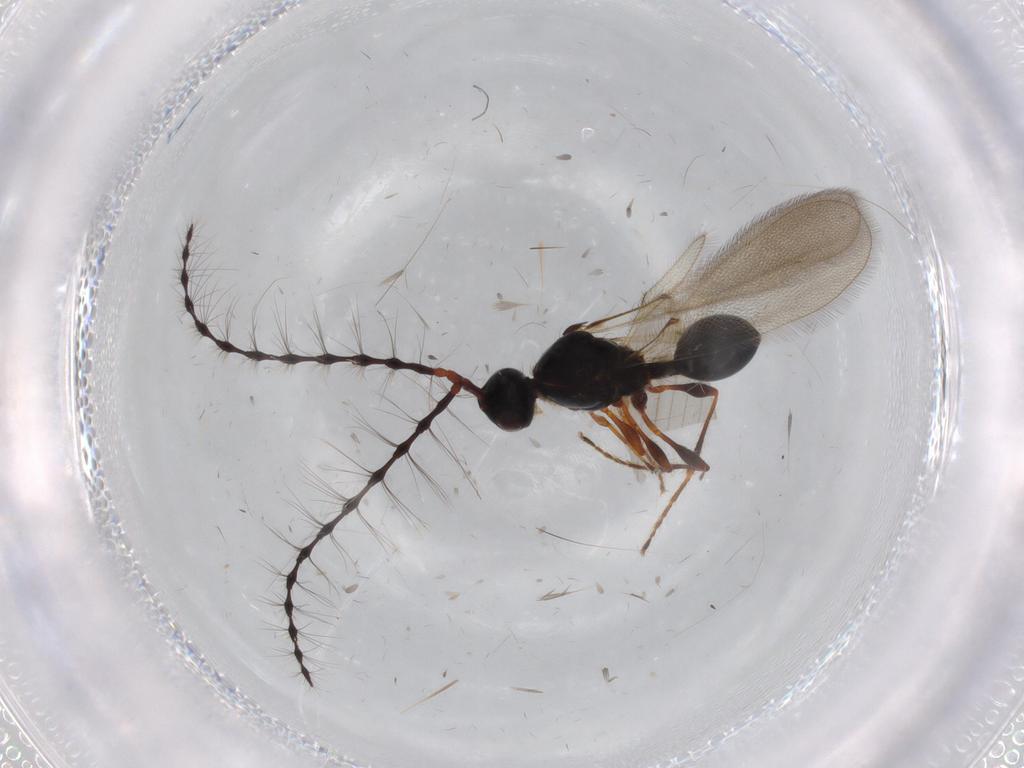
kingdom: Animalia
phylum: Arthropoda
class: Insecta
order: Hymenoptera
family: Diapriidae
